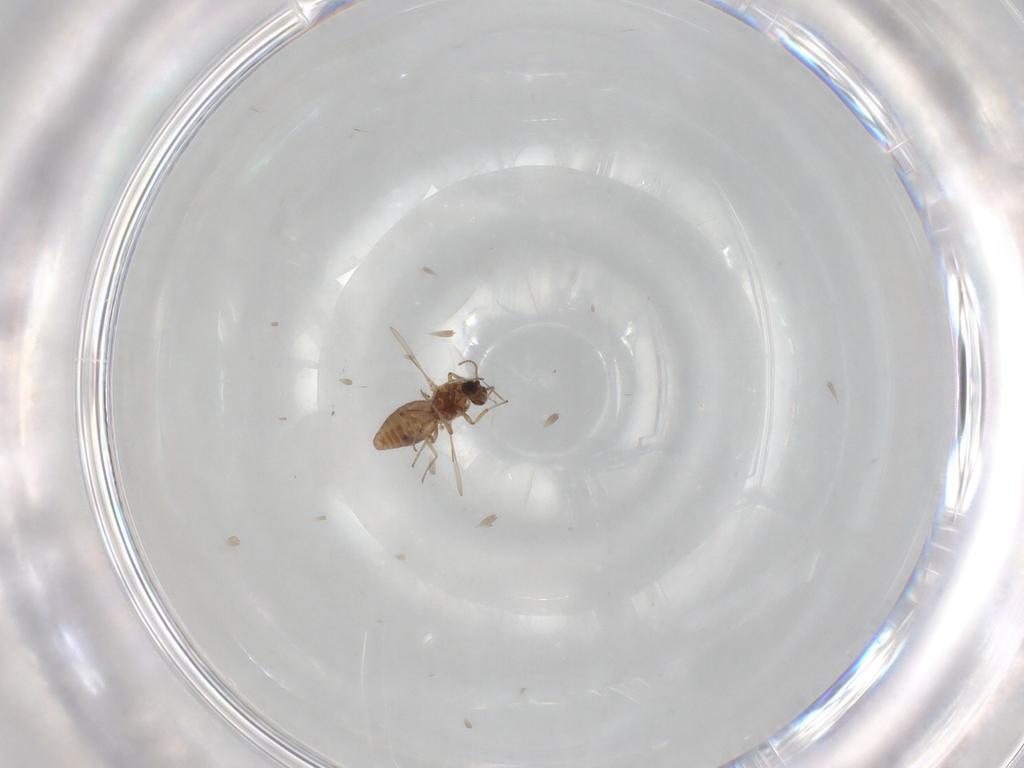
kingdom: Animalia
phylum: Arthropoda
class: Insecta
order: Diptera
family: Ceratopogonidae
